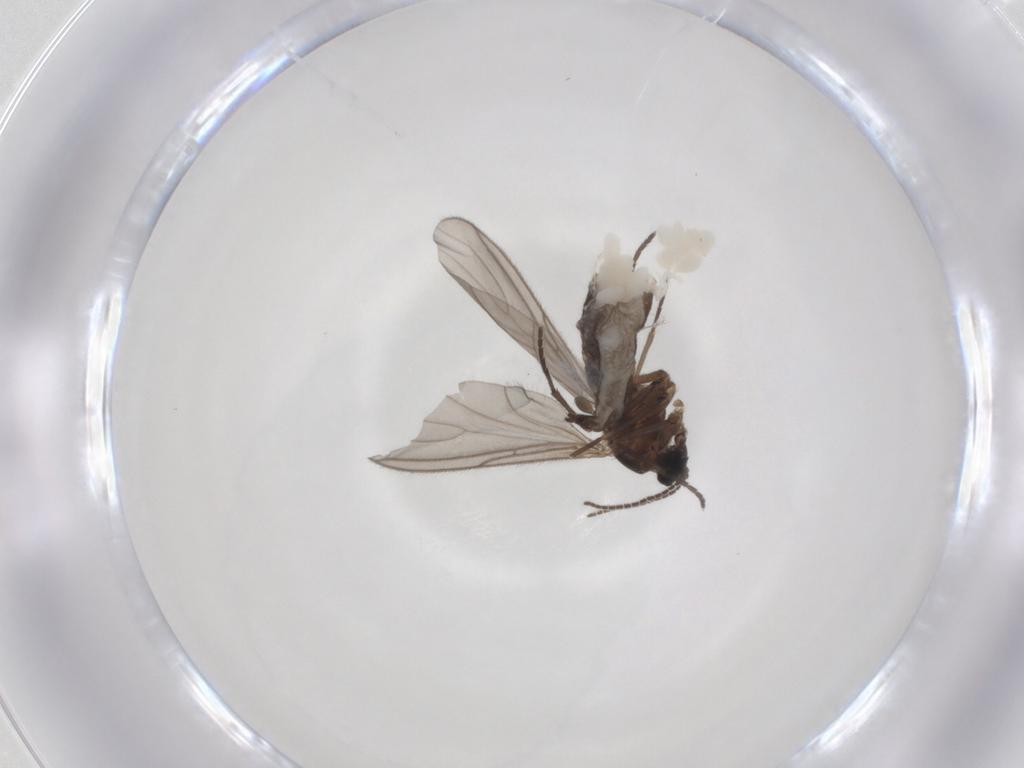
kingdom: Animalia
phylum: Arthropoda
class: Insecta
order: Diptera
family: Sciaridae
